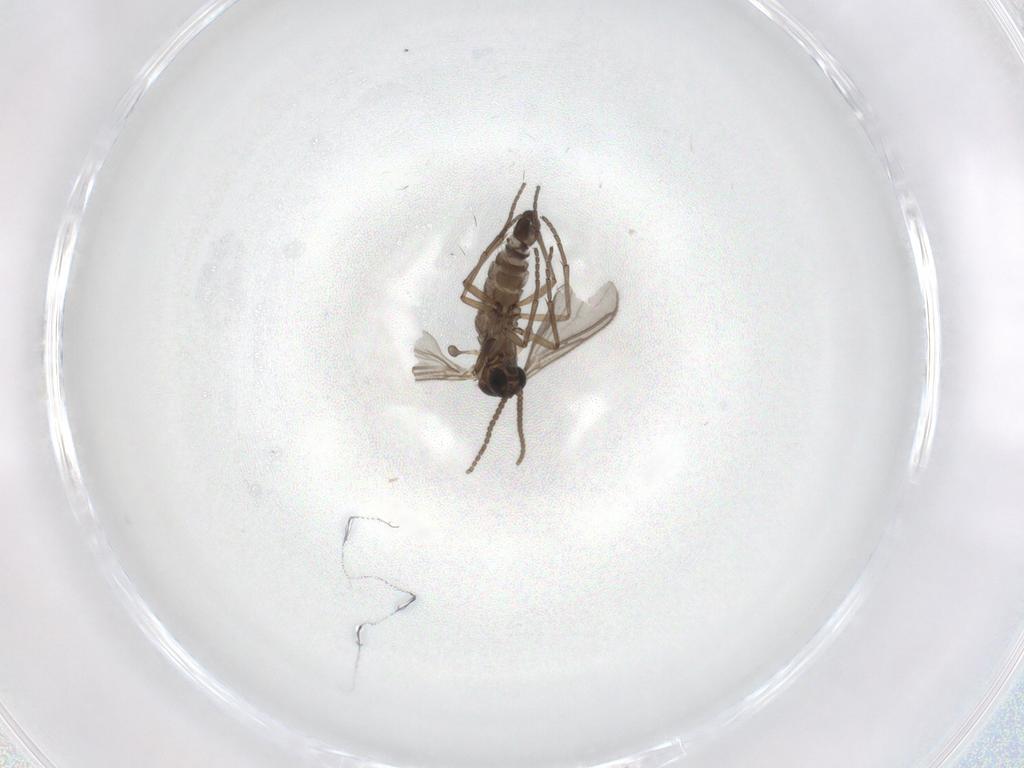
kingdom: Animalia
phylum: Arthropoda
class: Insecta
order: Diptera
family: Sciaridae
